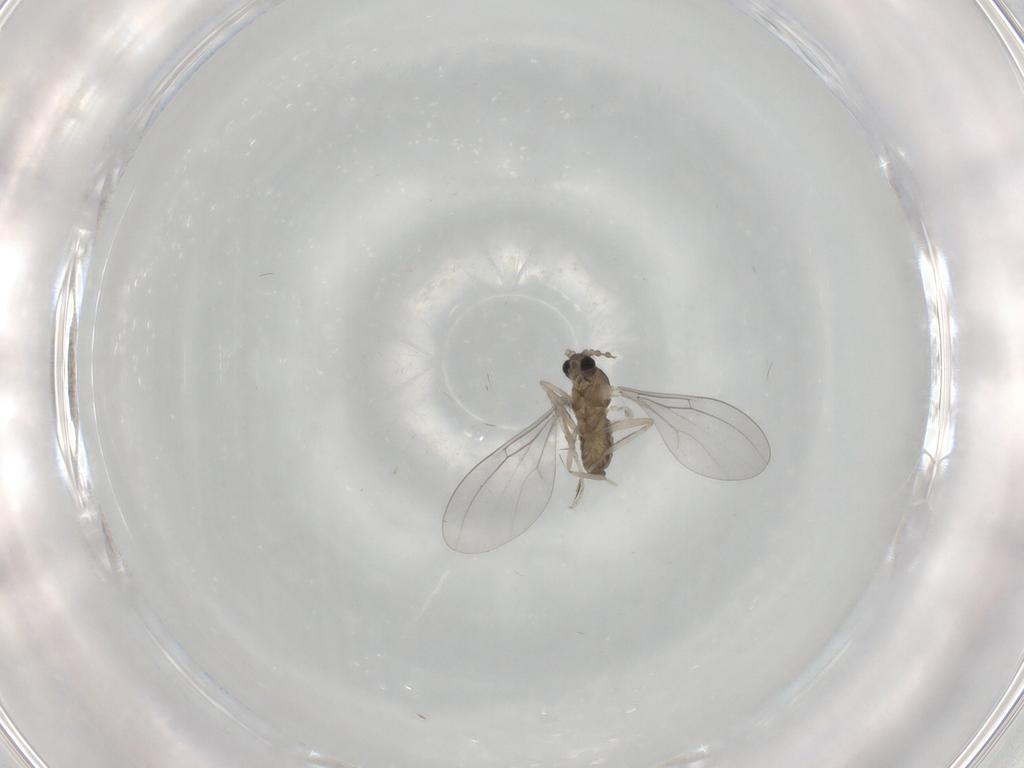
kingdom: Animalia
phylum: Arthropoda
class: Insecta
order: Diptera
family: Cecidomyiidae
